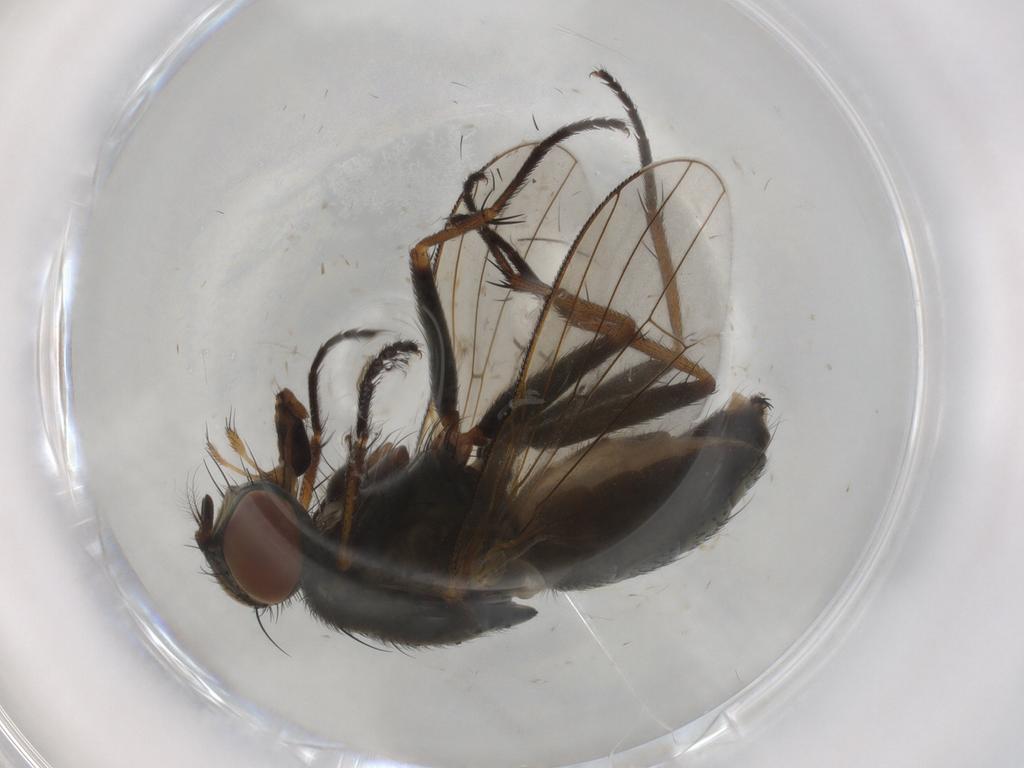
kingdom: Animalia
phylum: Arthropoda
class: Insecta
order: Diptera
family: Muscidae
